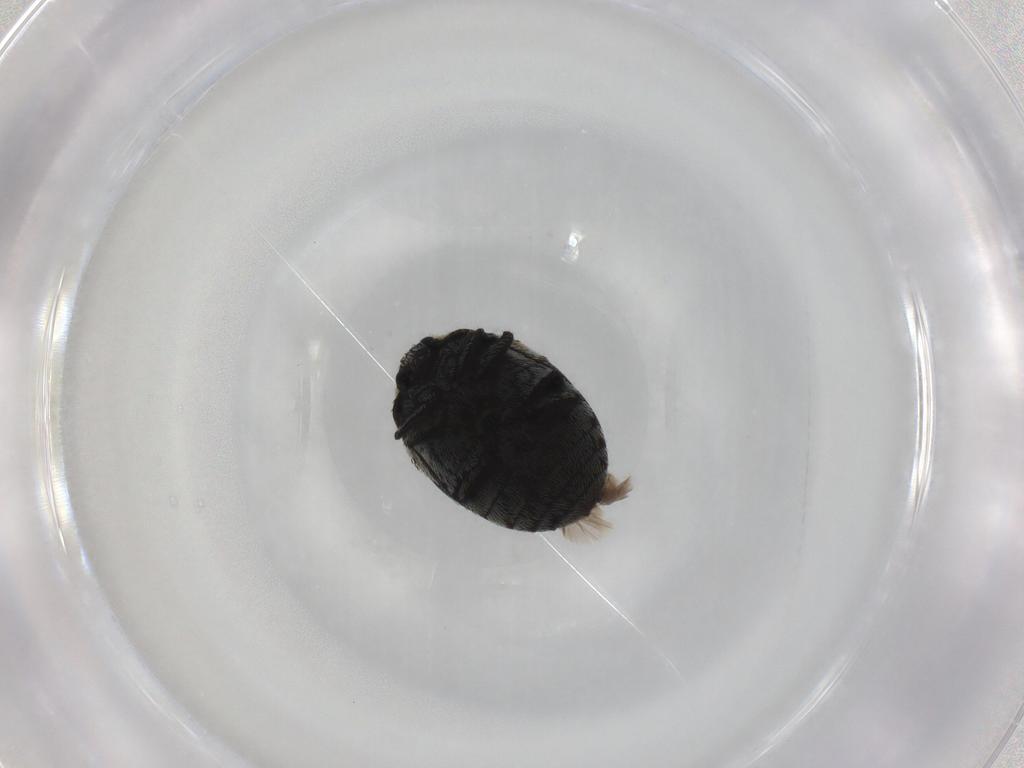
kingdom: Animalia
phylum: Arthropoda
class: Insecta
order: Coleoptera
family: Dermestidae
